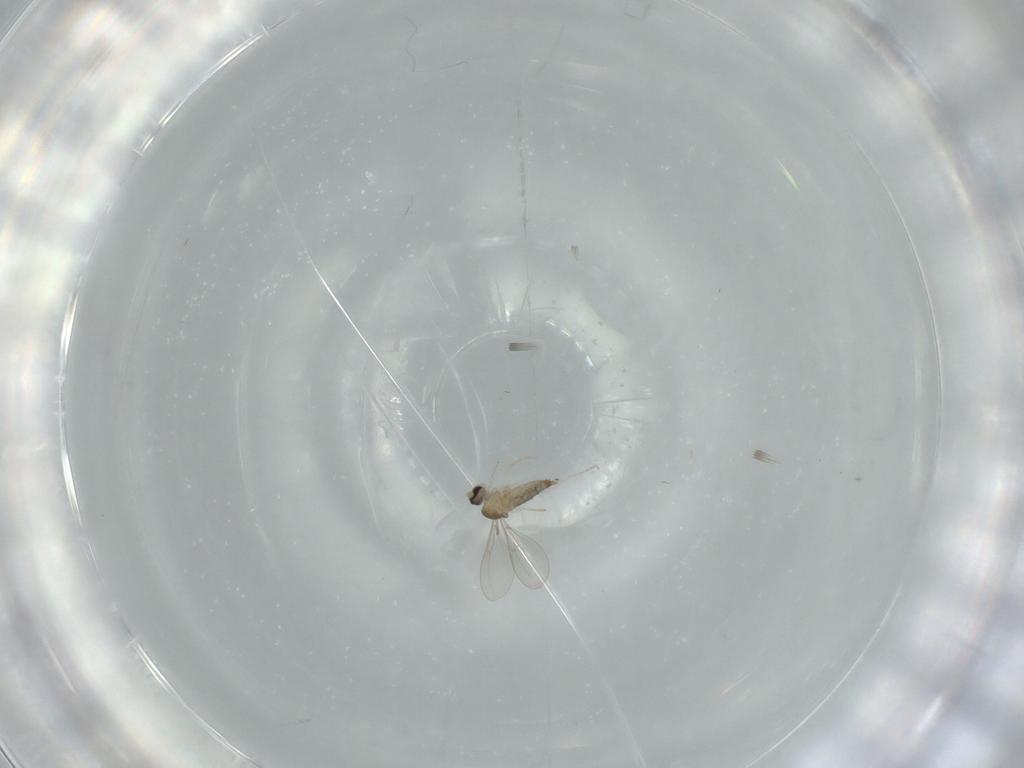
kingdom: Animalia
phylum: Arthropoda
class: Insecta
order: Diptera
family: Cecidomyiidae
